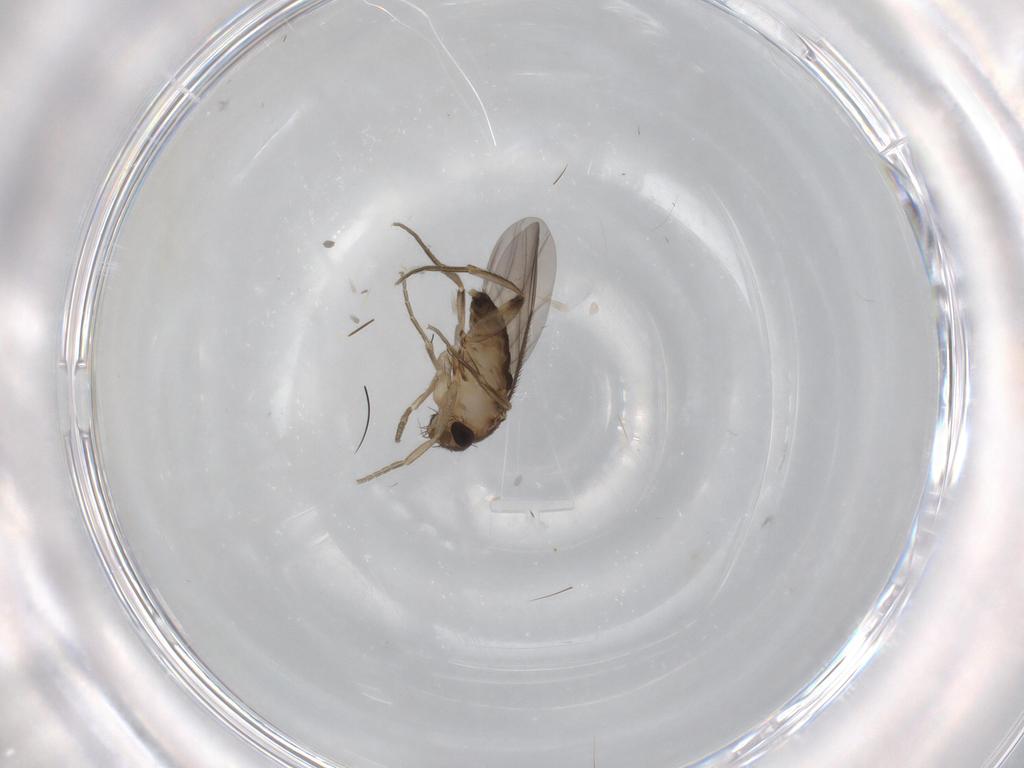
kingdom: Animalia
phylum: Arthropoda
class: Insecta
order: Diptera
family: Phoridae
